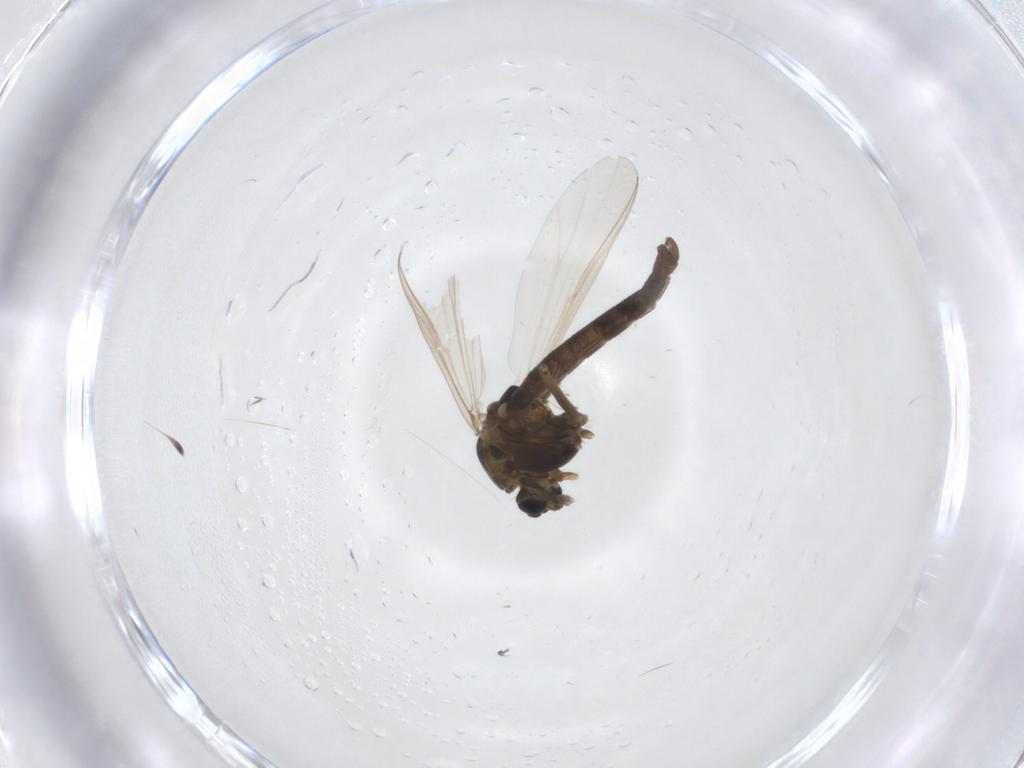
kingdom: Animalia
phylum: Arthropoda
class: Insecta
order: Diptera
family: Chironomidae
